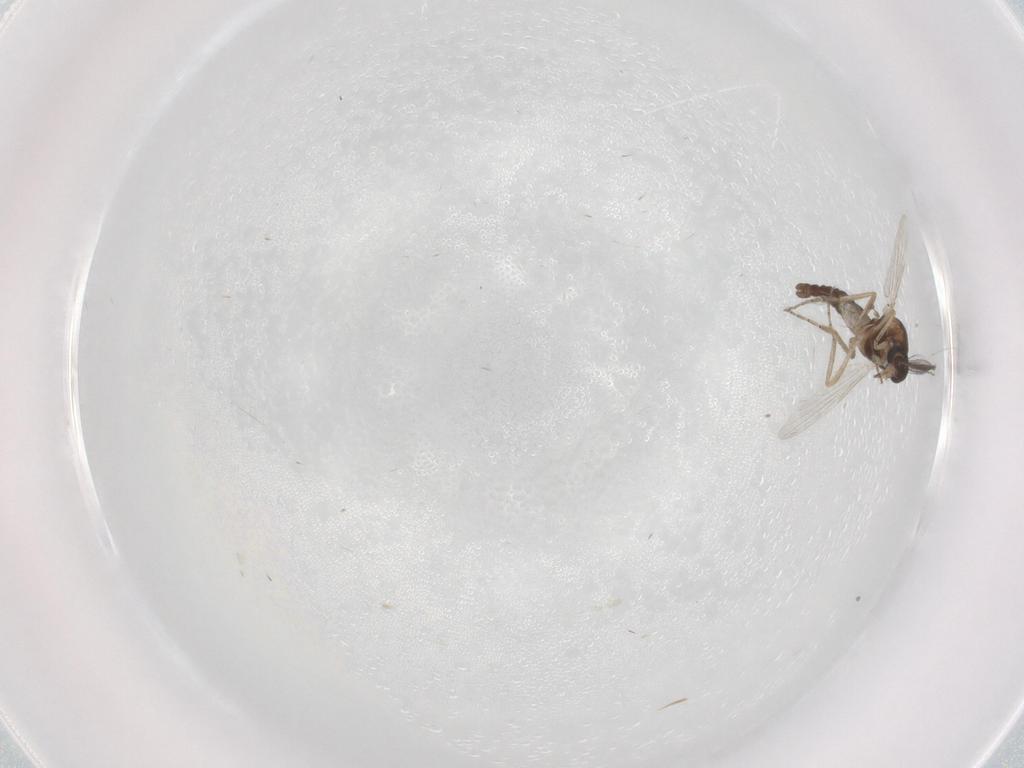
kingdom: Animalia
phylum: Arthropoda
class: Insecta
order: Diptera
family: Ceratopogonidae
